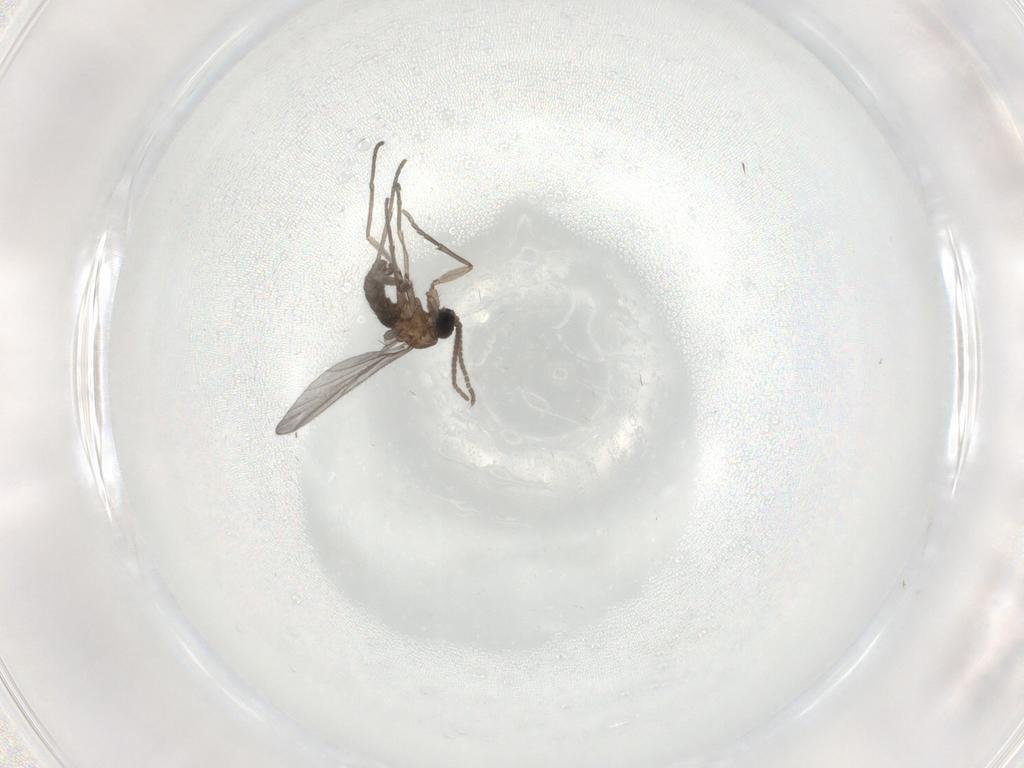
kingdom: Animalia
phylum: Arthropoda
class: Insecta
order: Diptera
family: Sciaridae
